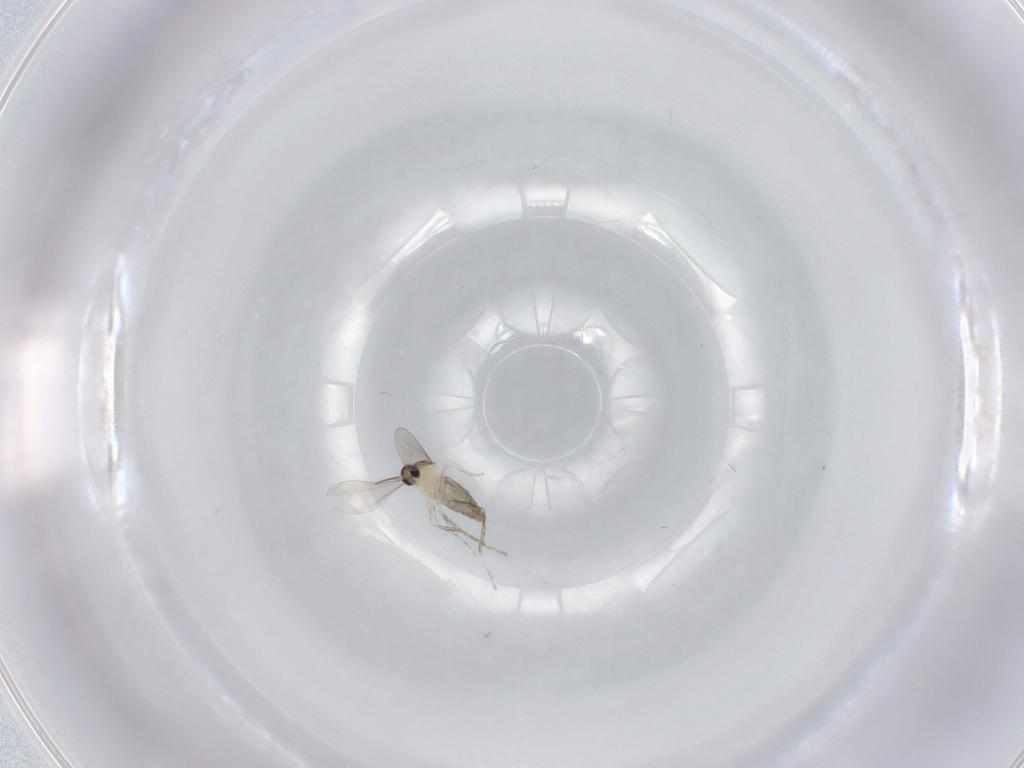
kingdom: Animalia
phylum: Arthropoda
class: Insecta
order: Diptera
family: Cecidomyiidae
